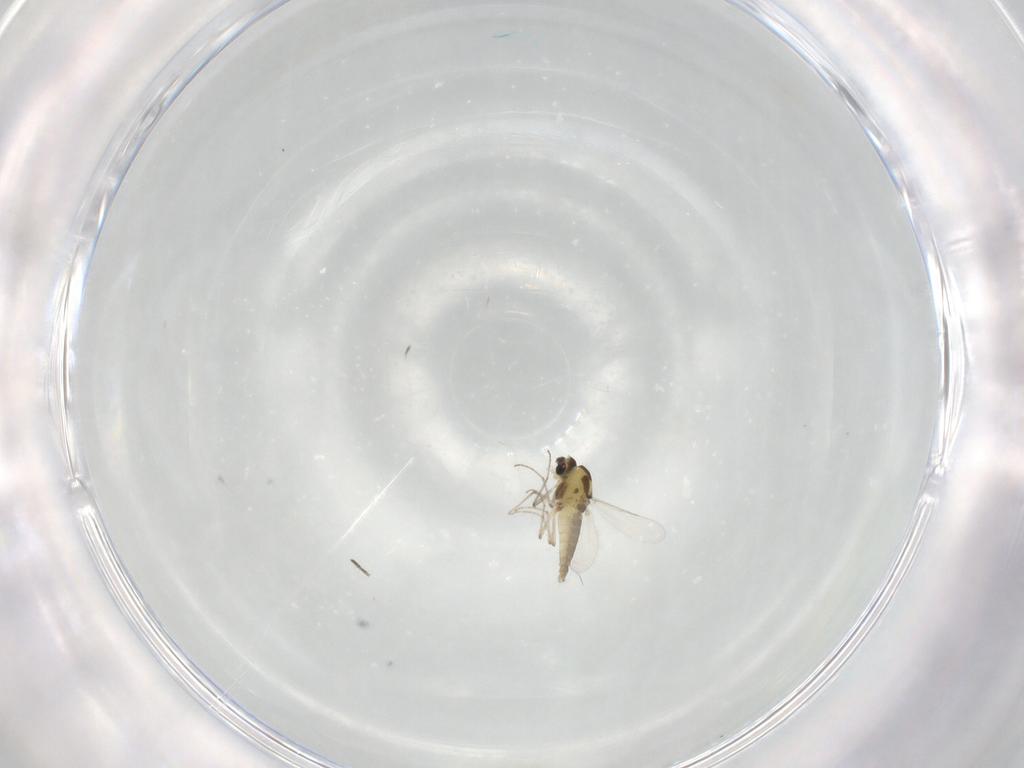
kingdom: Animalia
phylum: Arthropoda
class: Insecta
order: Diptera
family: Chironomidae
